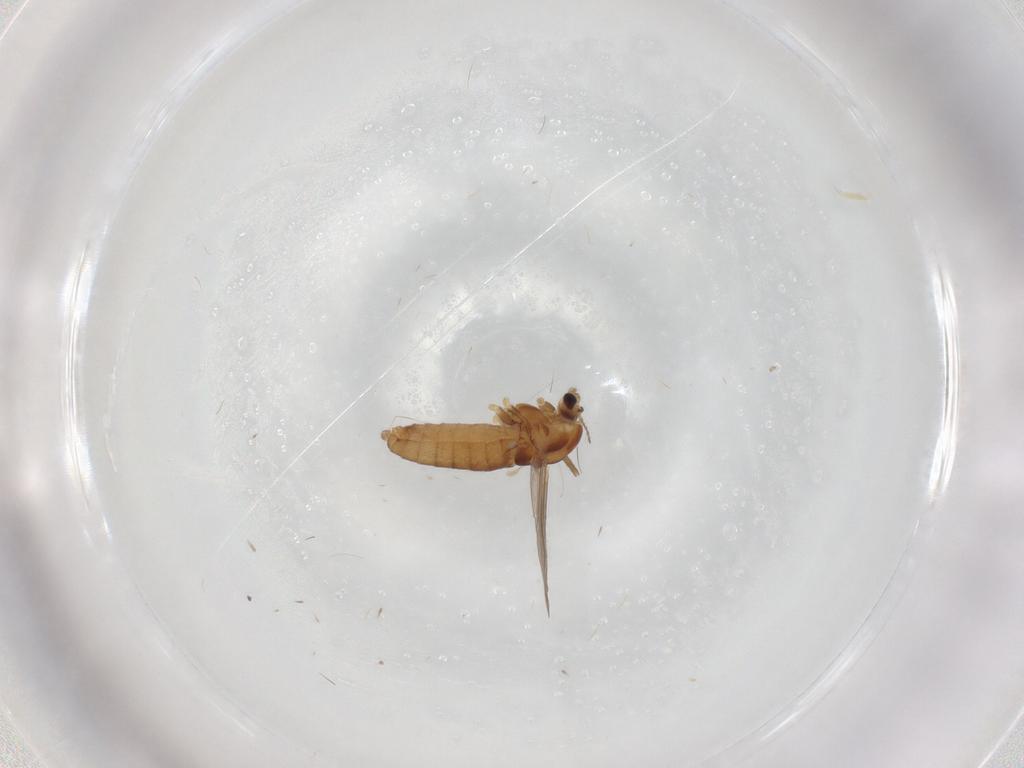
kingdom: Animalia
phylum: Arthropoda
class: Insecta
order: Diptera
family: Chironomidae
